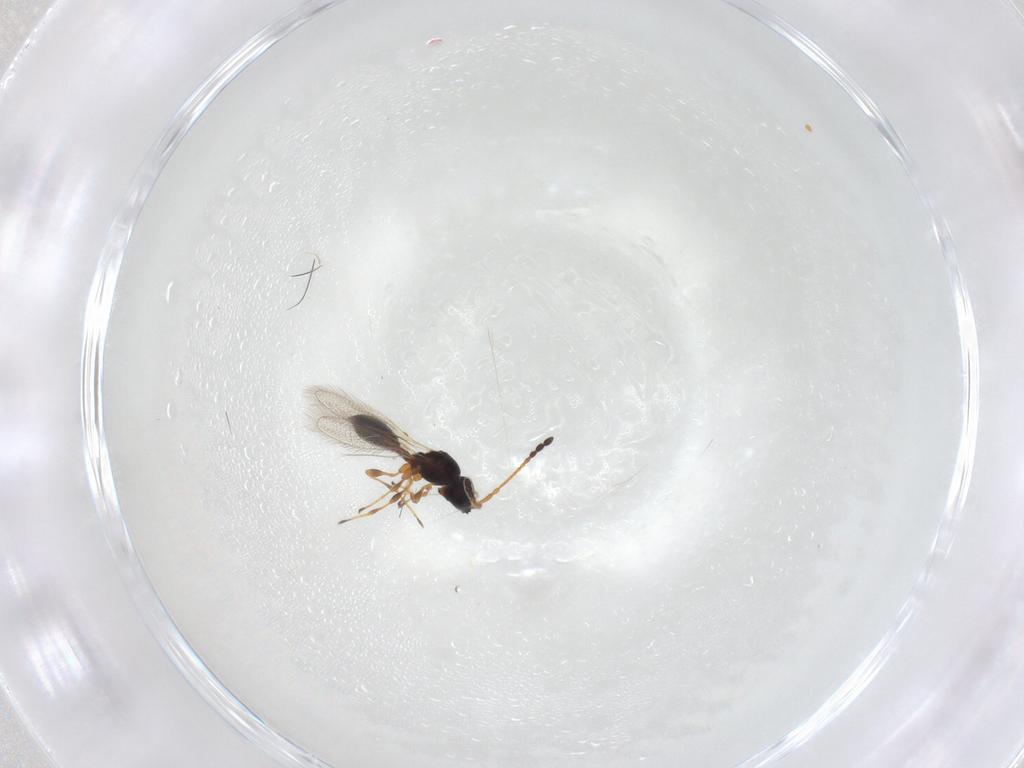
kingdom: Animalia
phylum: Arthropoda
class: Insecta
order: Hymenoptera
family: Diapriidae
